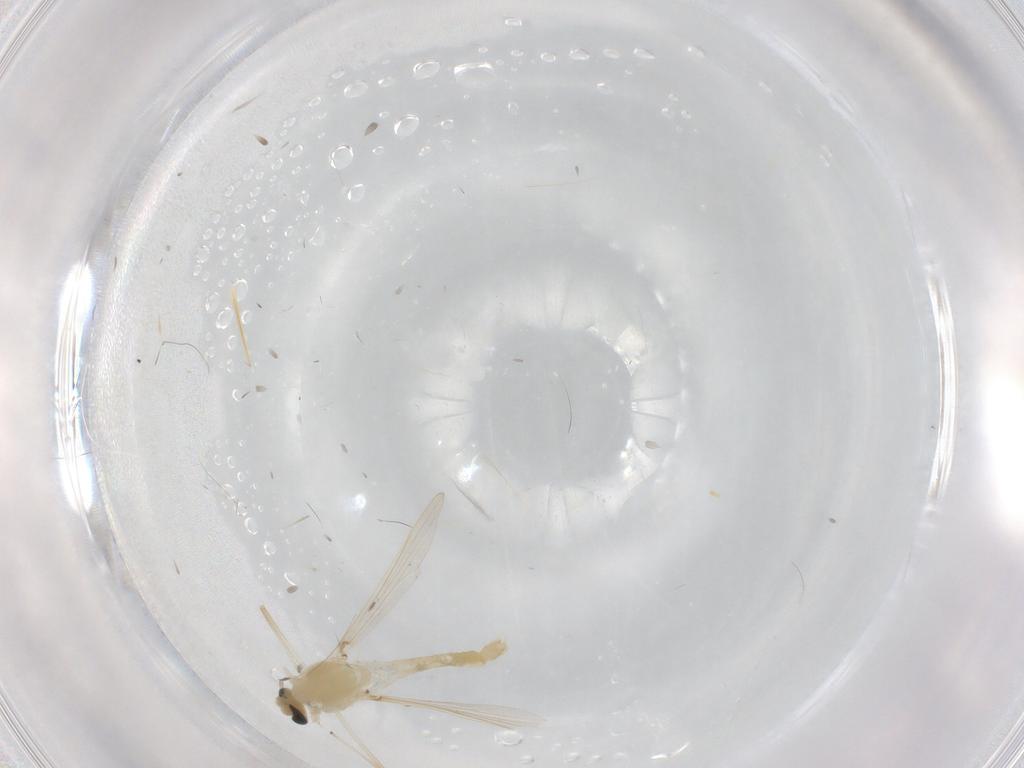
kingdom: Animalia
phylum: Arthropoda
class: Insecta
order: Diptera
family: Chironomidae
